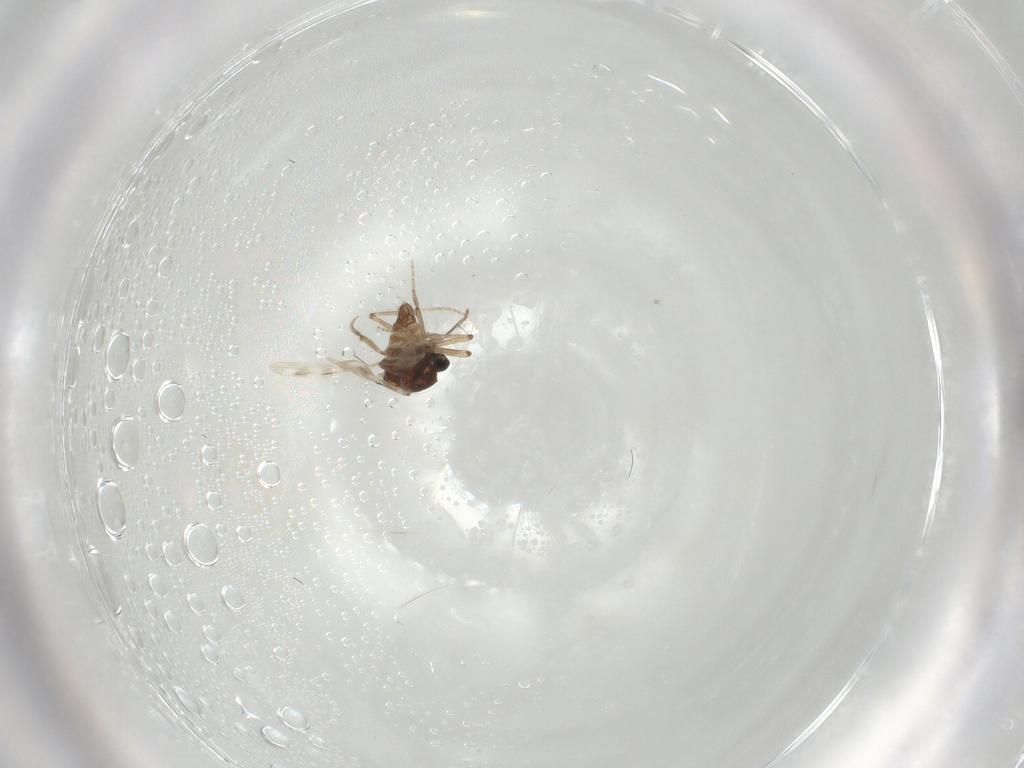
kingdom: Animalia
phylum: Arthropoda
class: Insecta
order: Diptera
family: Ceratopogonidae
